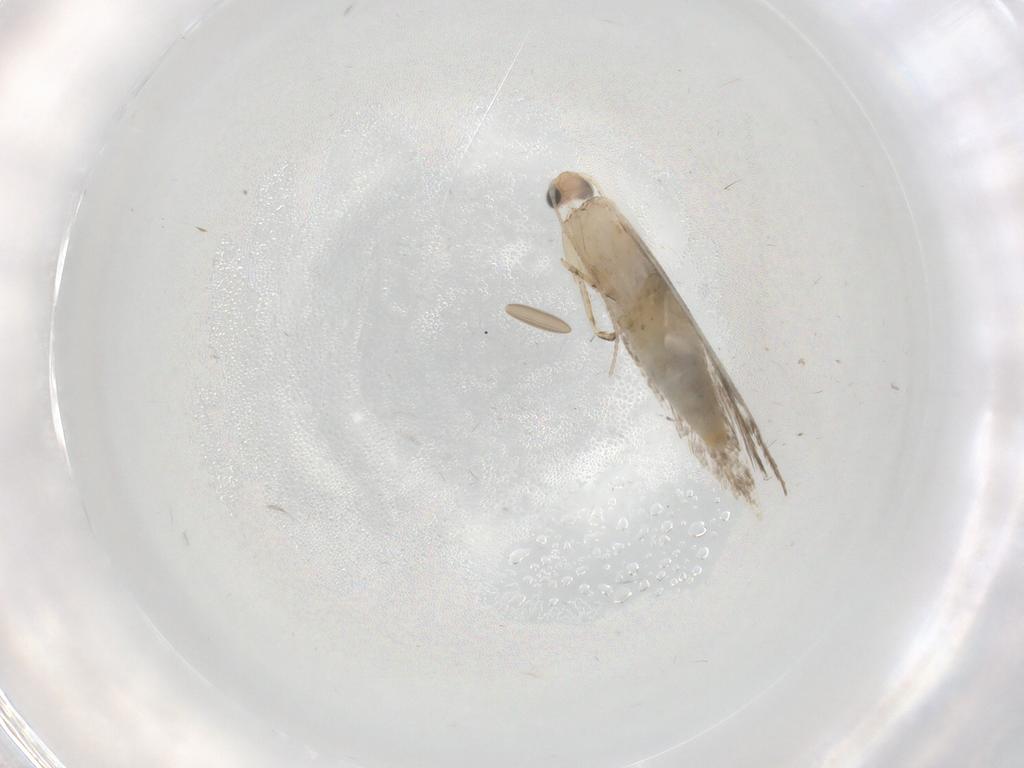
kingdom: Animalia
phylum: Arthropoda
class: Insecta
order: Lepidoptera
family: Tineidae
